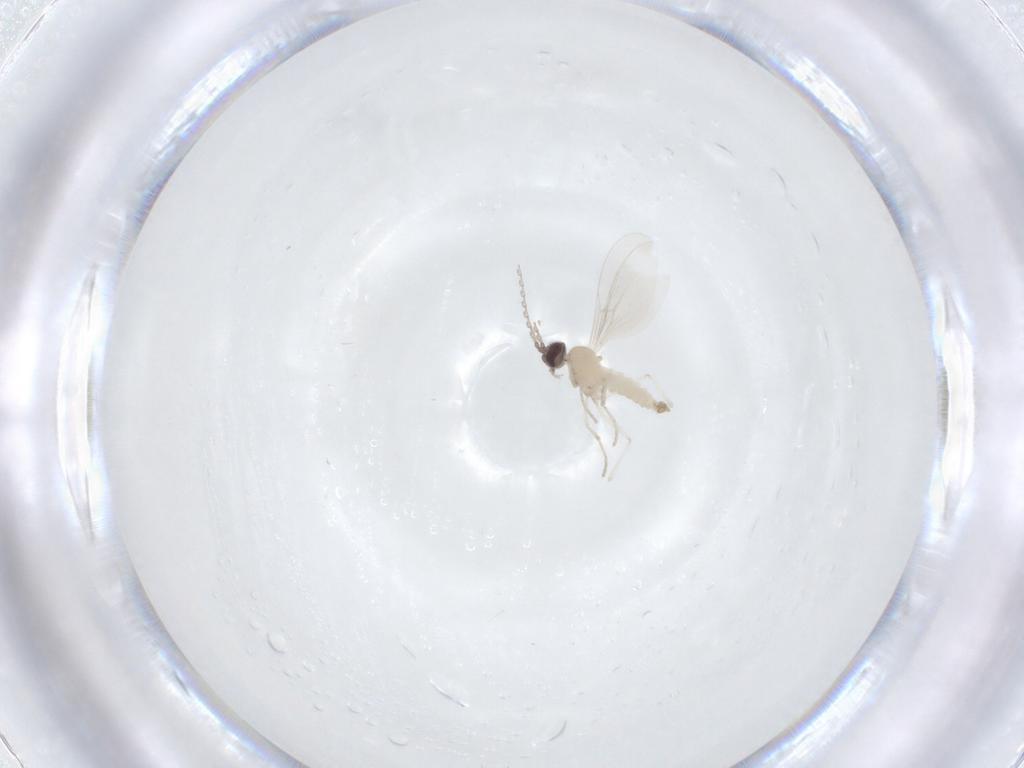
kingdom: Animalia
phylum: Arthropoda
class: Insecta
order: Diptera
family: Cecidomyiidae
